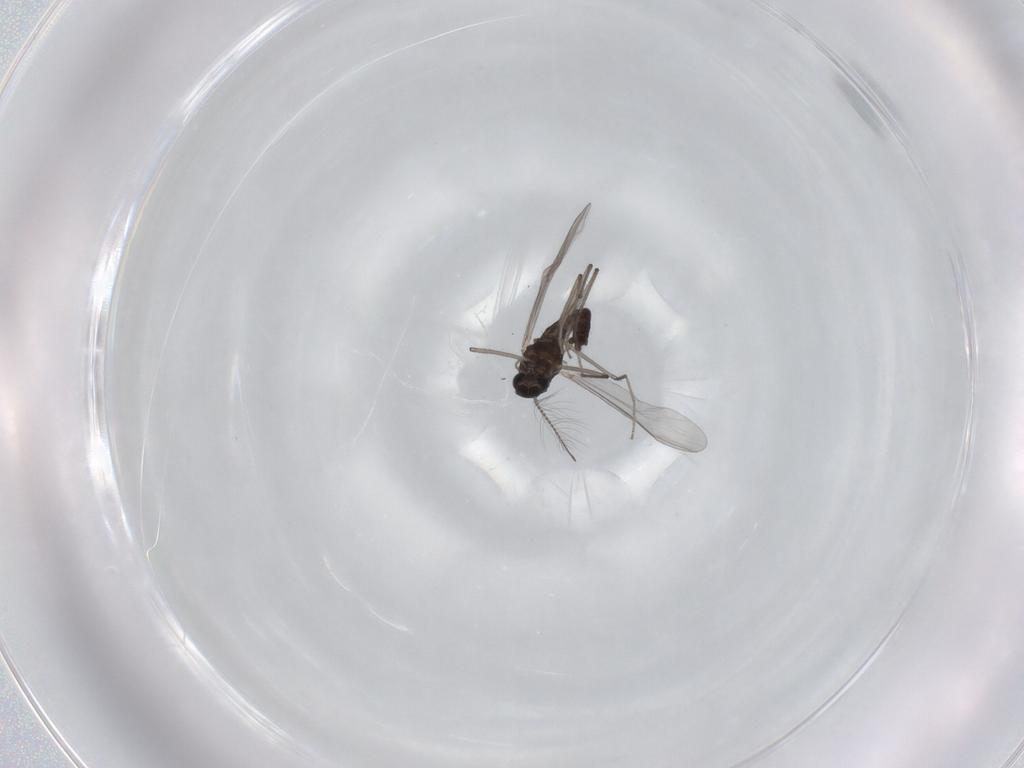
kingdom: Animalia
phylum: Arthropoda
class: Insecta
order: Diptera
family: Chironomidae
